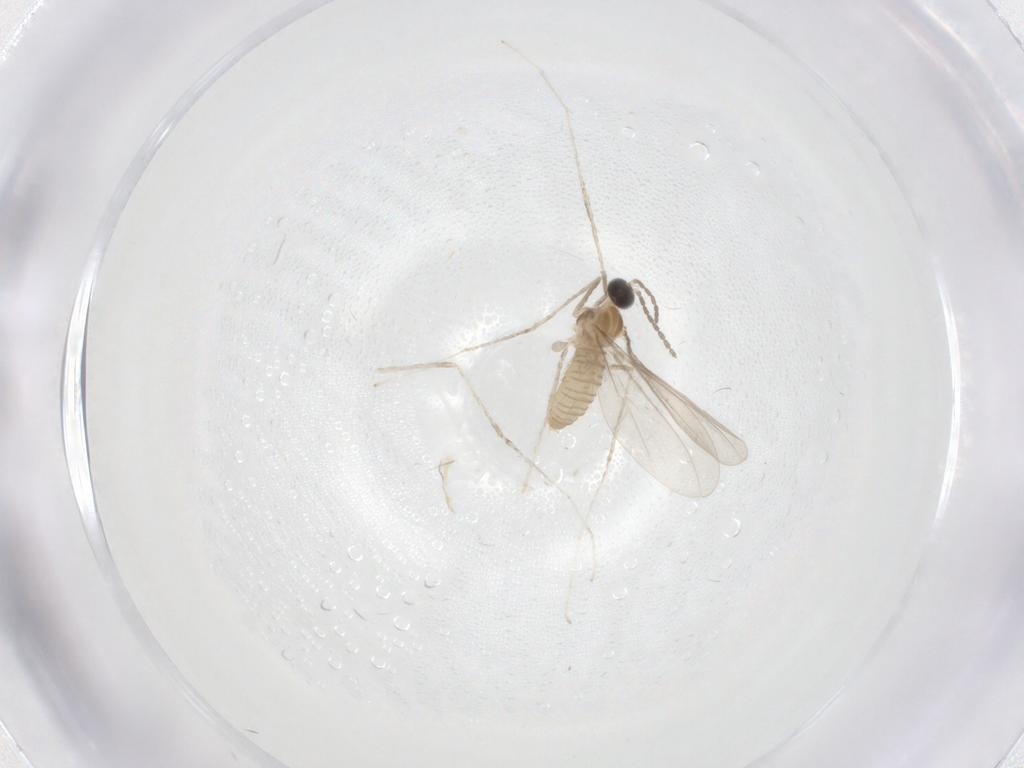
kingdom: Animalia
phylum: Arthropoda
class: Insecta
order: Diptera
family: Cecidomyiidae
